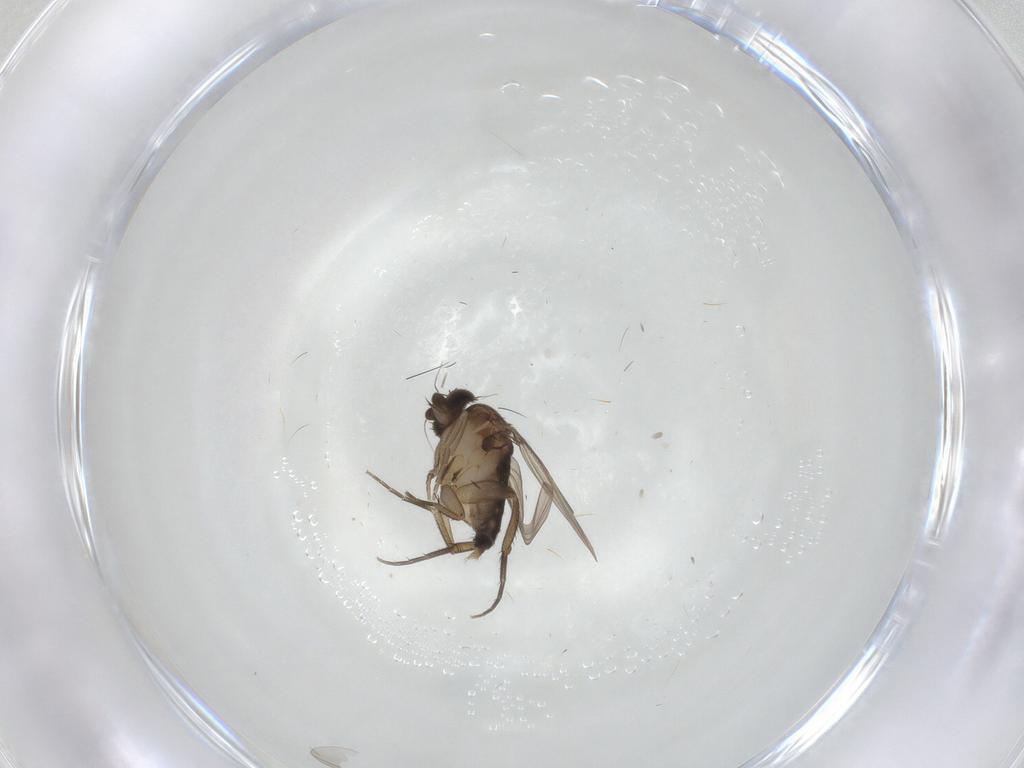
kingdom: Animalia
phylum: Arthropoda
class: Insecta
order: Diptera
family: Phoridae
